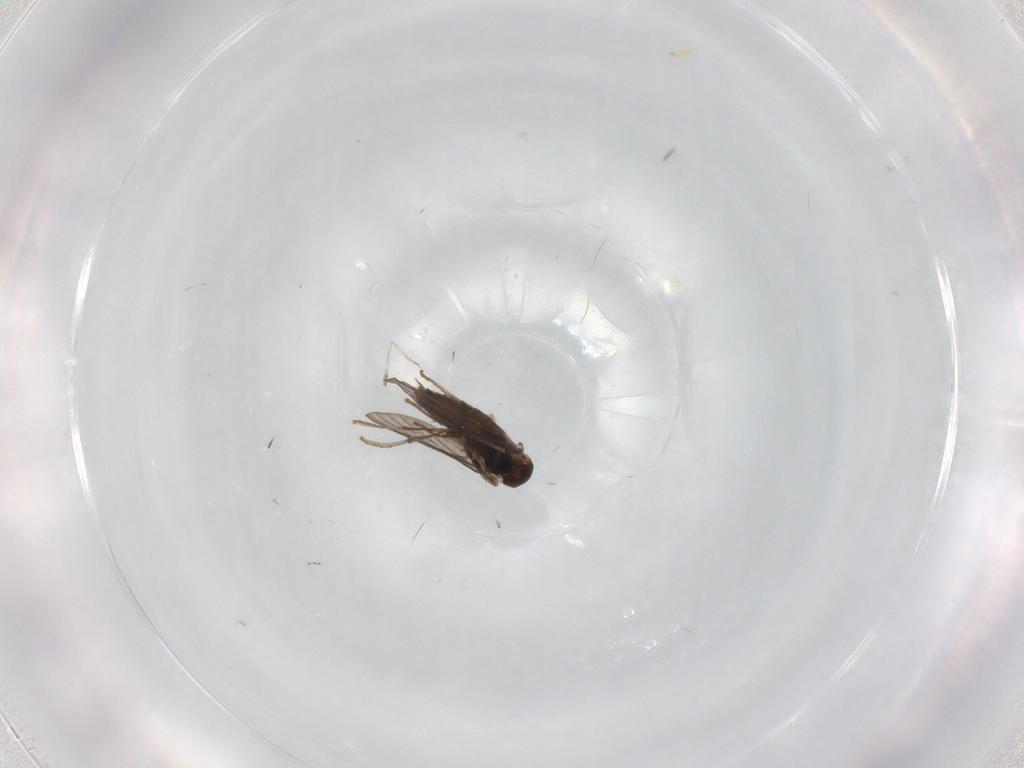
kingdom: Animalia
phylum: Arthropoda
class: Insecta
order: Diptera
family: Psychodidae
